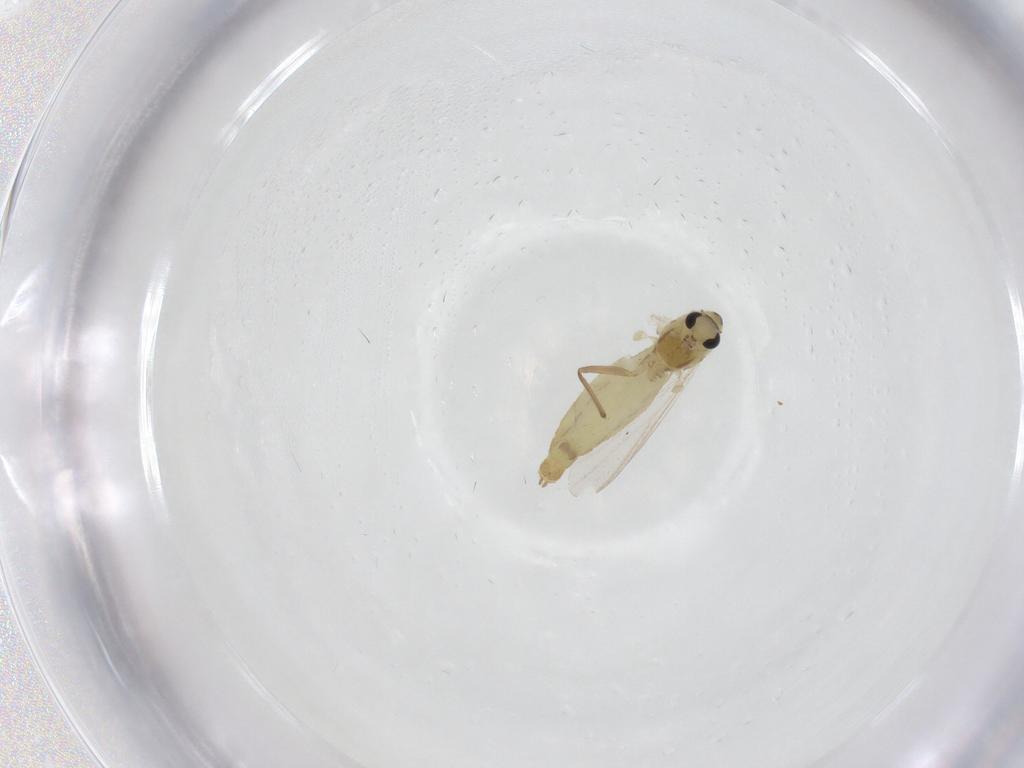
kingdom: Animalia
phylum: Arthropoda
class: Insecta
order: Diptera
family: Chironomidae
